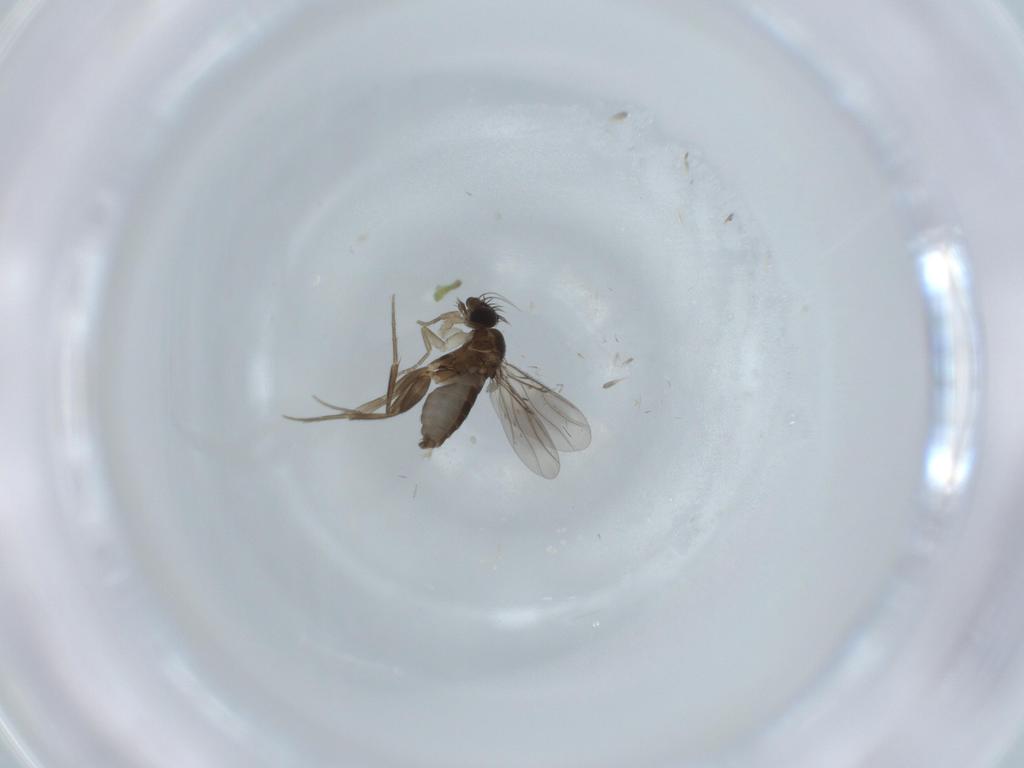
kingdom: Animalia
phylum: Arthropoda
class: Insecta
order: Diptera
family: Phoridae
